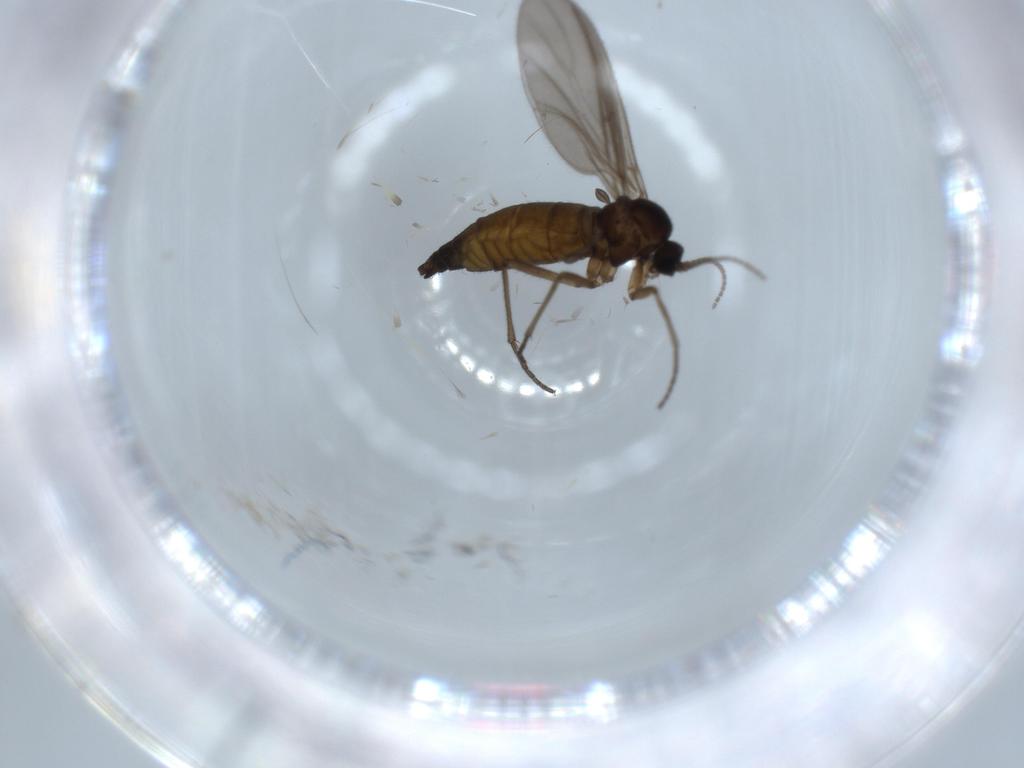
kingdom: Animalia
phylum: Arthropoda
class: Insecta
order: Diptera
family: Sciaridae
